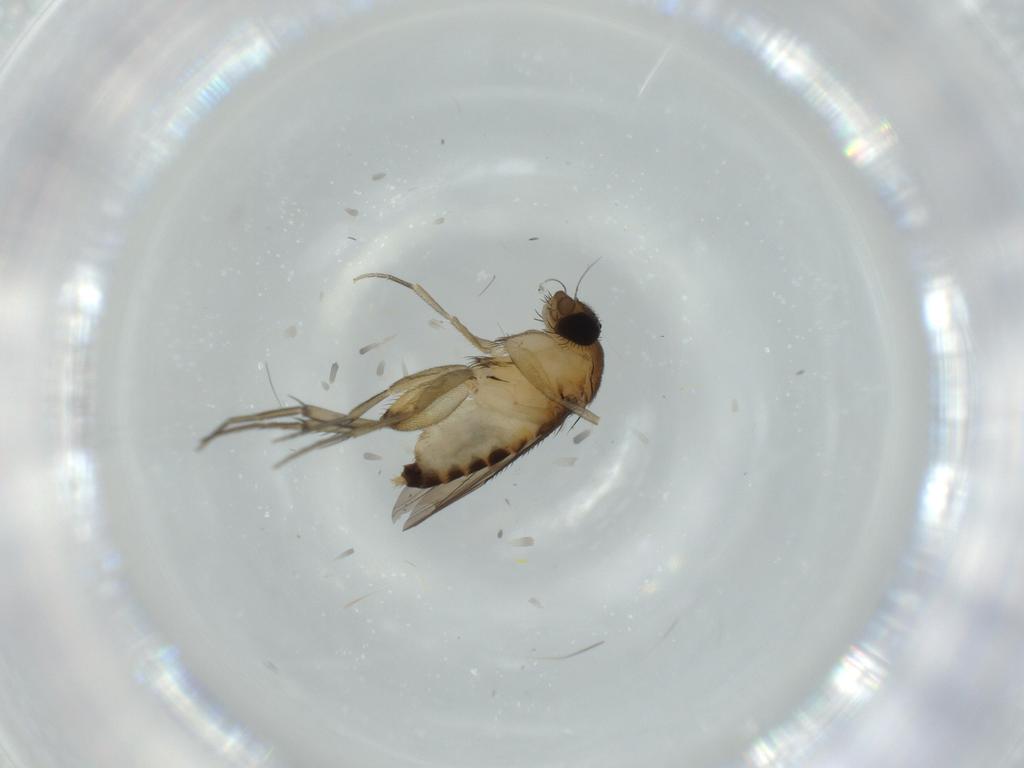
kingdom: Animalia
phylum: Arthropoda
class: Insecta
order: Diptera
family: Phoridae
